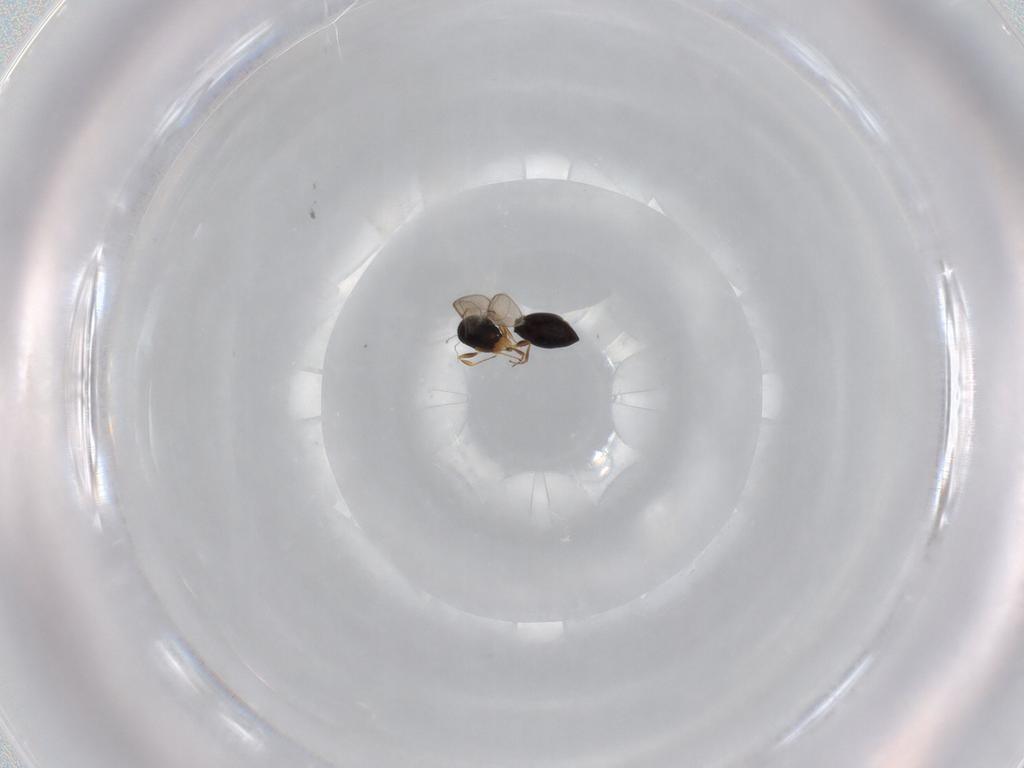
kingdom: Animalia
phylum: Arthropoda
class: Insecta
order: Hymenoptera
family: Scelionidae
